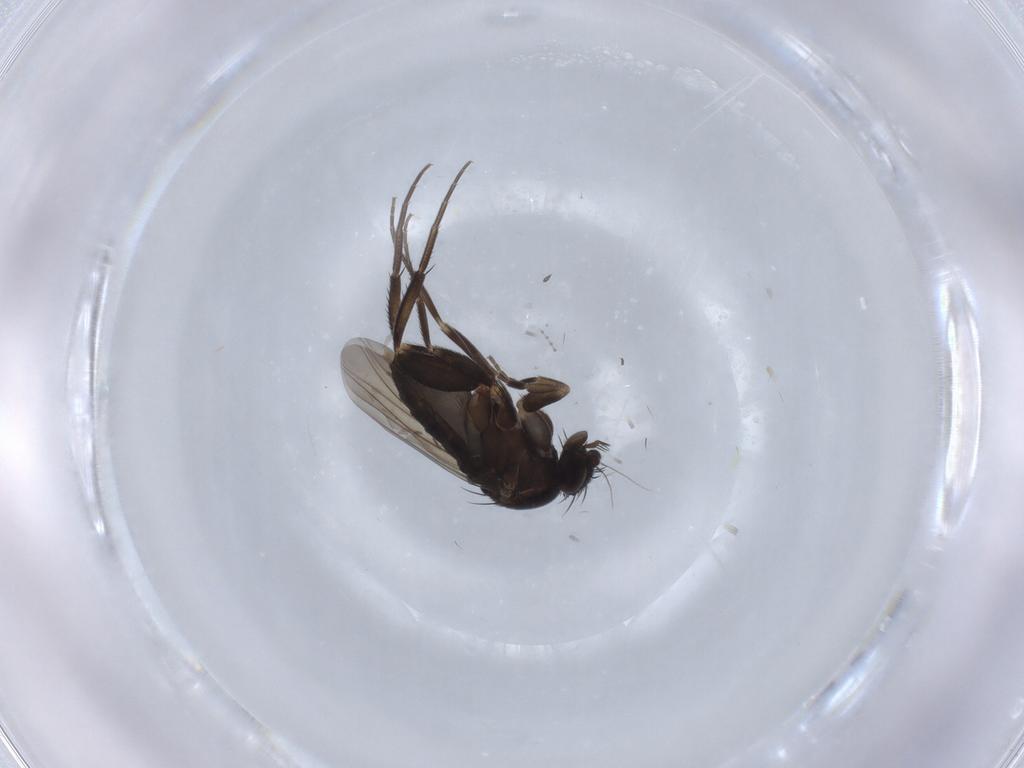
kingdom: Animalia
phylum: Arthropoda
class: Insecta
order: Diptera
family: Phoridae
